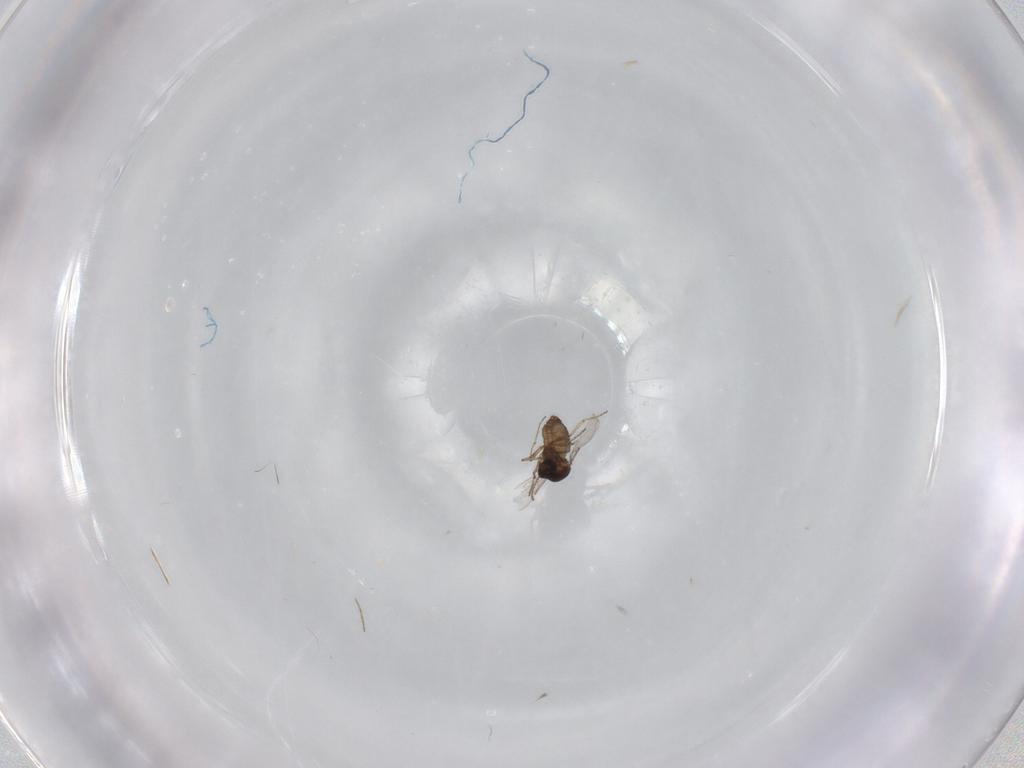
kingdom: Animalia
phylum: Arthropoda
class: Insecta
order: Diptera
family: Ceratopogonidae
